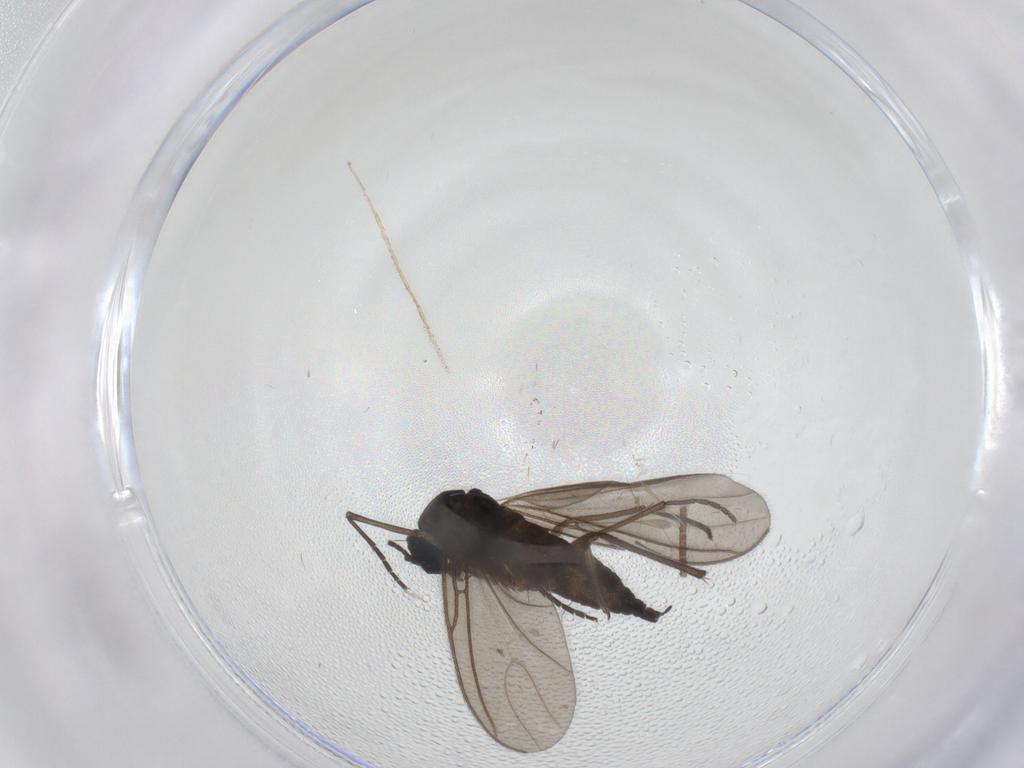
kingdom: Animalia
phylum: Arthropoda
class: Insecta
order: Diptera
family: Sciaridae
